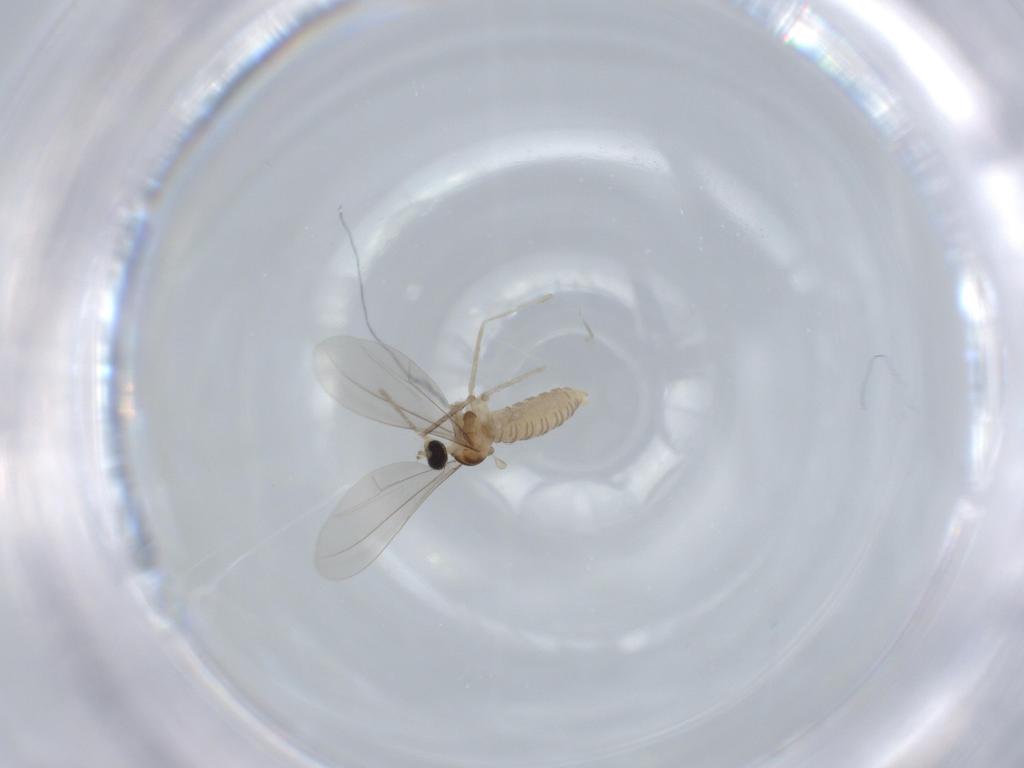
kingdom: Animalia
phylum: Arthropoda
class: Insecta
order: Diptera
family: Cecidomyiidae
